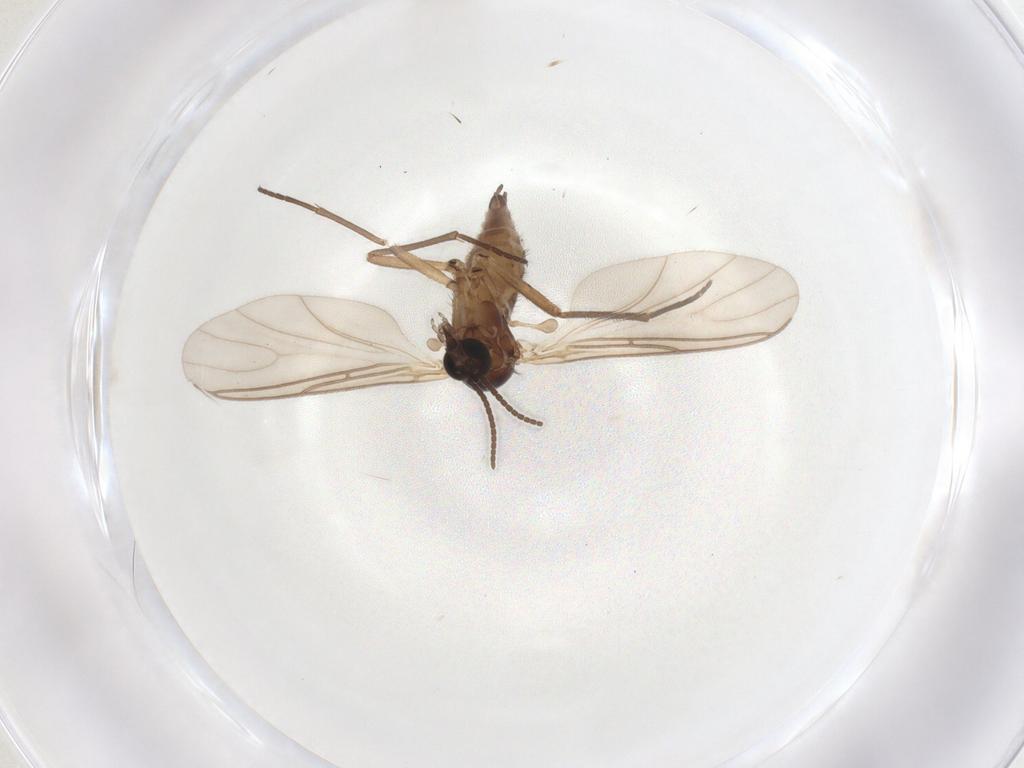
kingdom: Animalia
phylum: Arthropoda
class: Insecta
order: Diptera
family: Sciaridae
